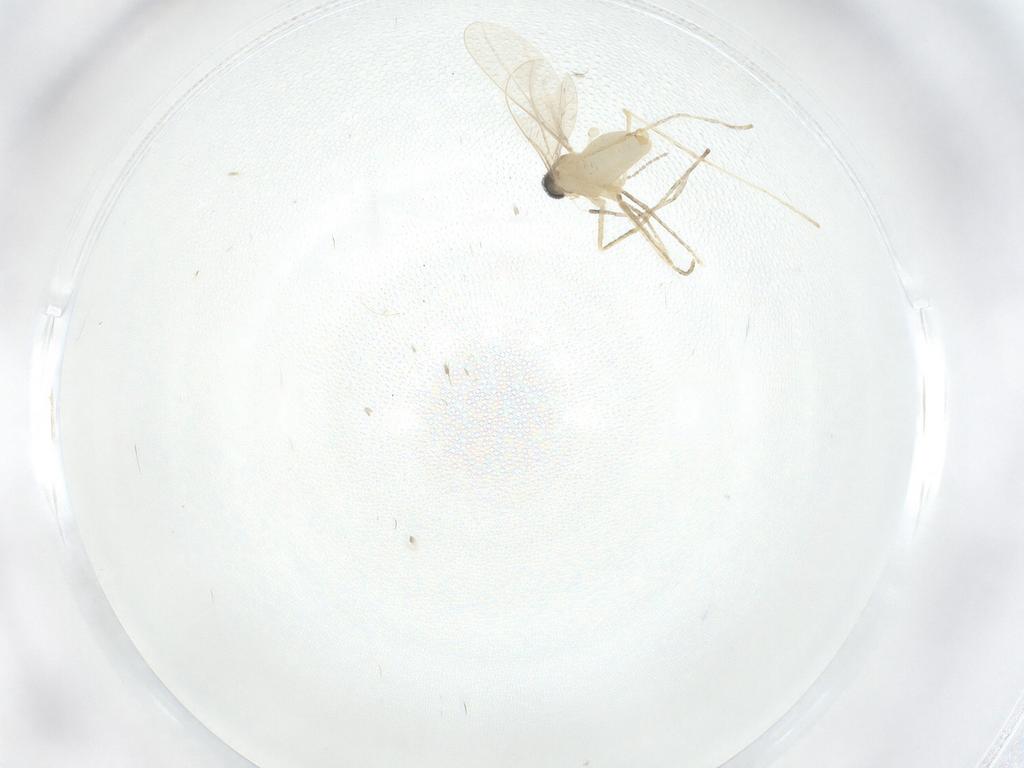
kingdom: Animalia
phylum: Arthropoda
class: Insecta
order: Diptera
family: Cecidomyiidae
